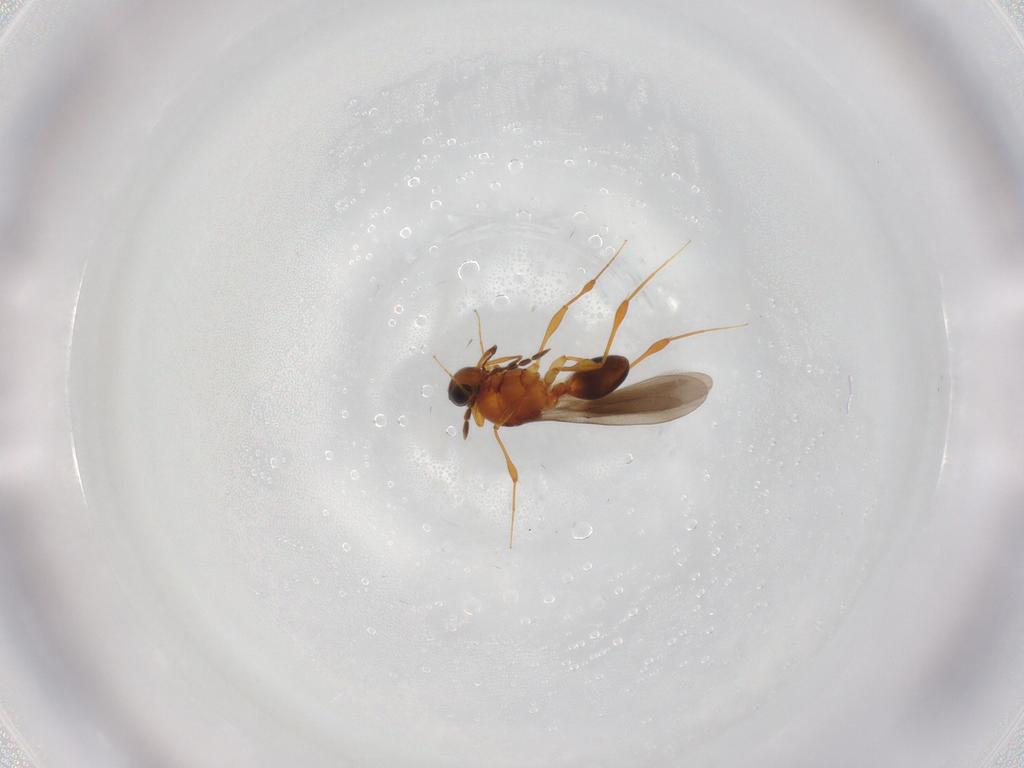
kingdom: Animalia
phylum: Arthropoda
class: Insecta
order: Hymenoptera
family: Platygastridae
